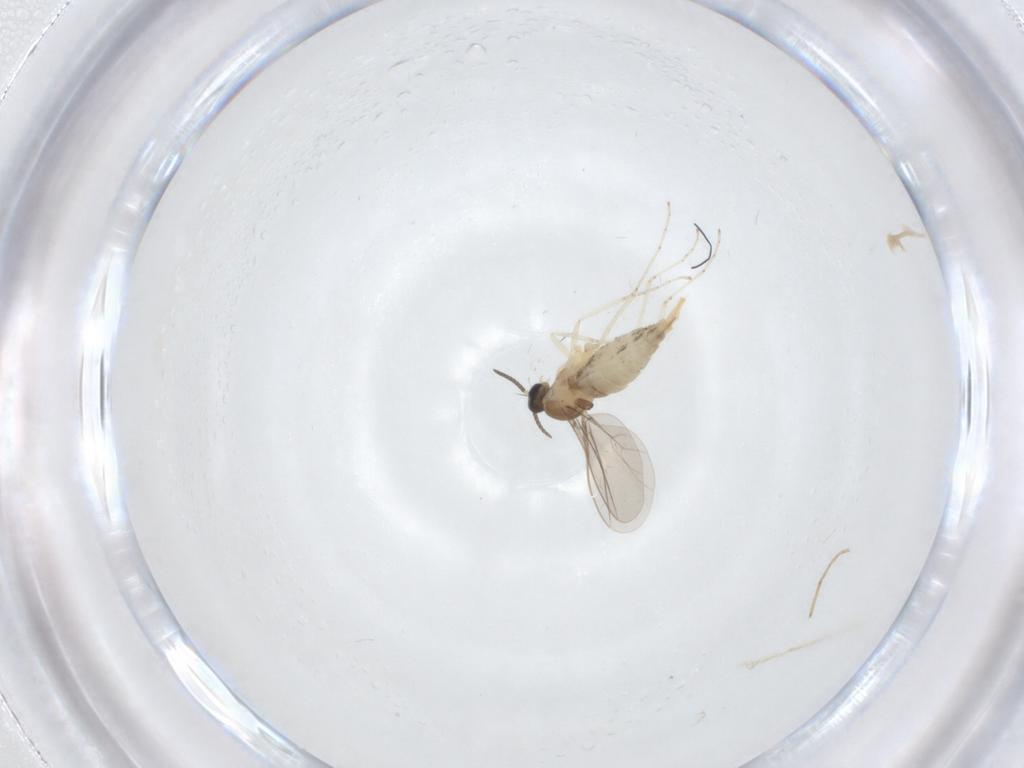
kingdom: Animalia
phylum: Arthropoda
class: Insecta
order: Diptera
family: Cecidomyiidae
